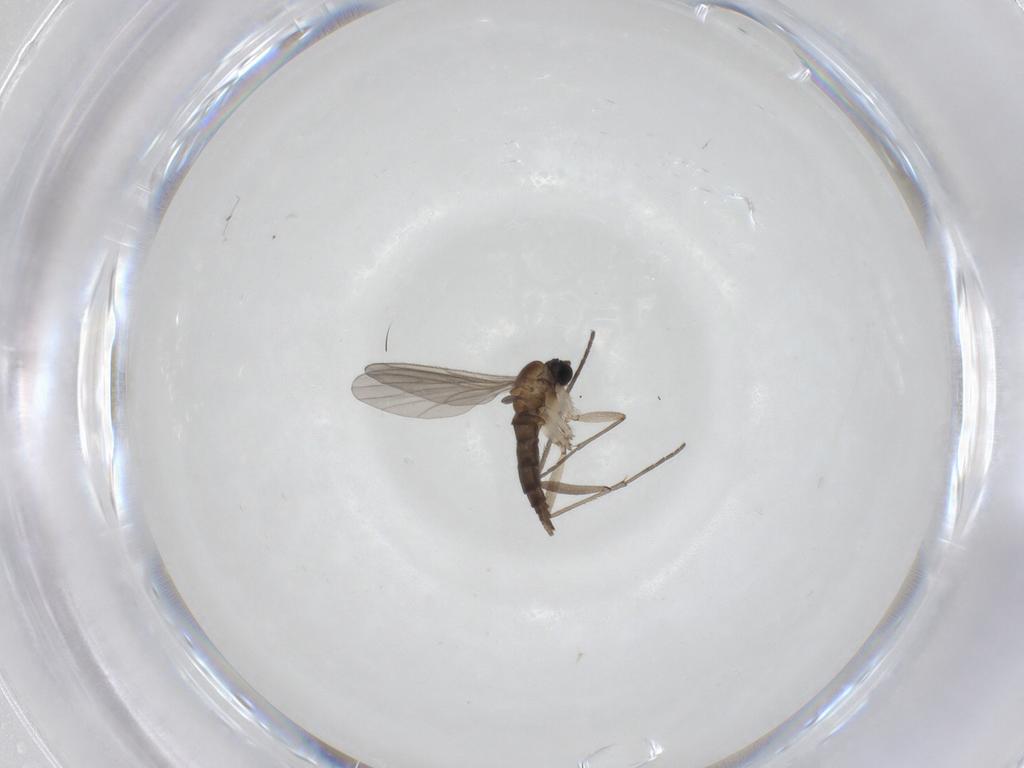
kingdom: Animalia
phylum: Arthropoda
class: Insecta
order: Diptera
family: Sciaridae
